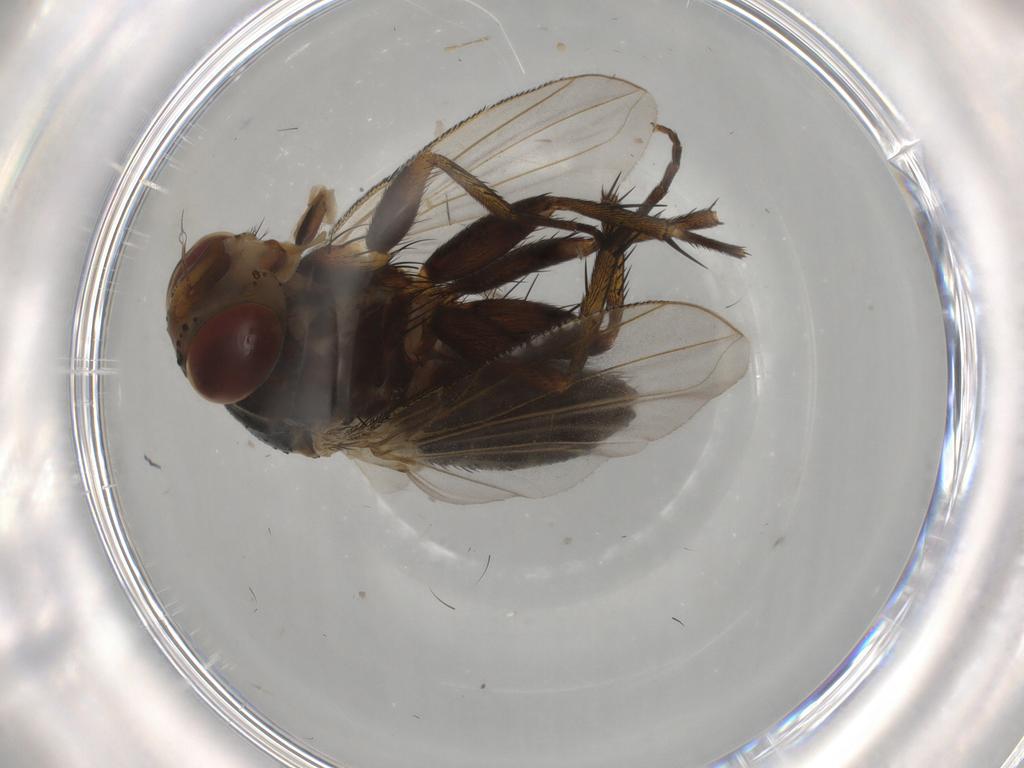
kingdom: Animalia
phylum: Arthropoda
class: Insecta
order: Diptera
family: Tachinidae
